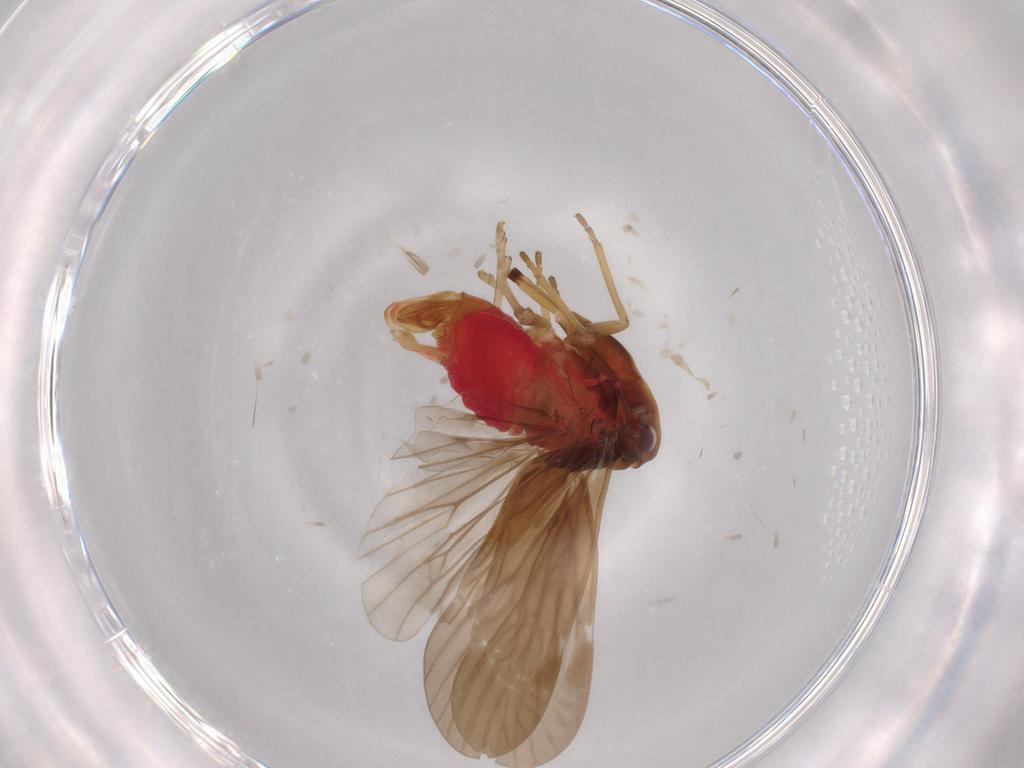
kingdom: Animalia
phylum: Arthropoda
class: Insecta
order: Hemiptera
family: Derbidae
